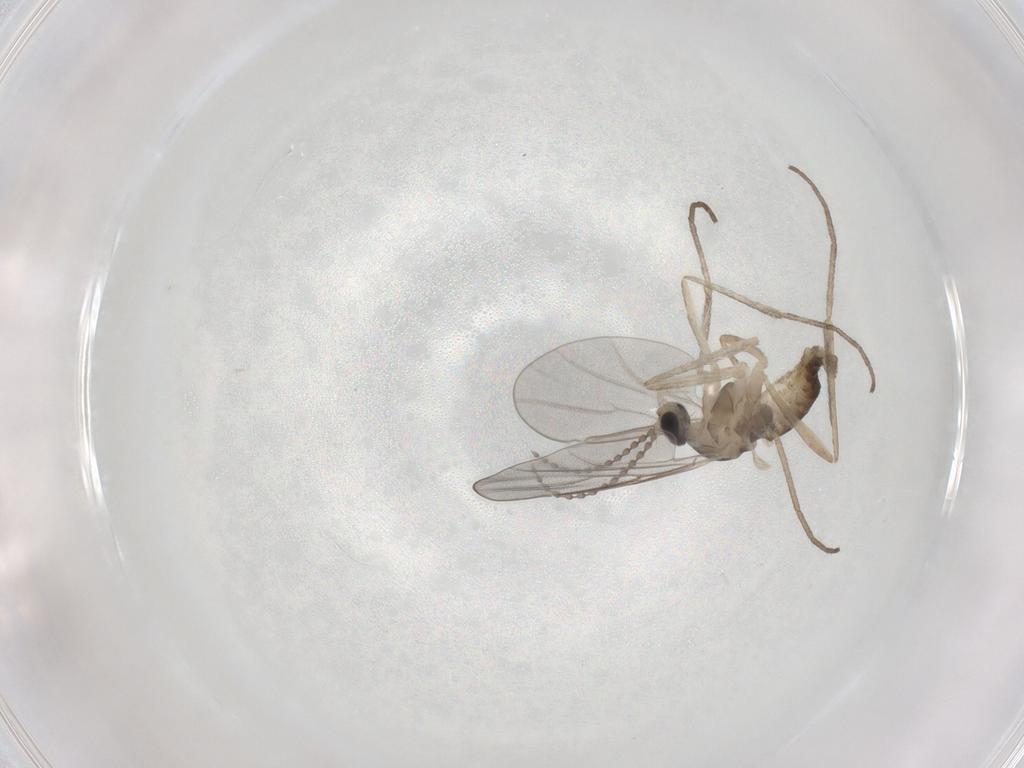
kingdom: Animalia
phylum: Arthropoda
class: Insecta
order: Diptera
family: Cecidomyiidae
